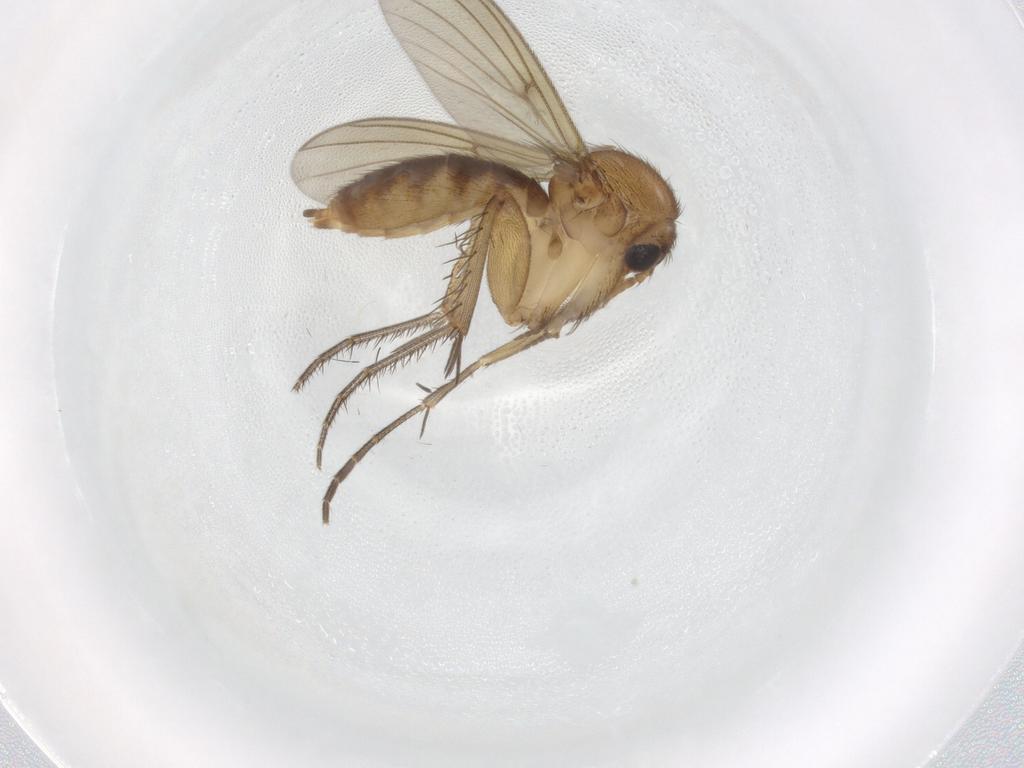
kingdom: Animalia
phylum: Arthropoda
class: Insecta
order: Diptera
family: Mycetophilidae
